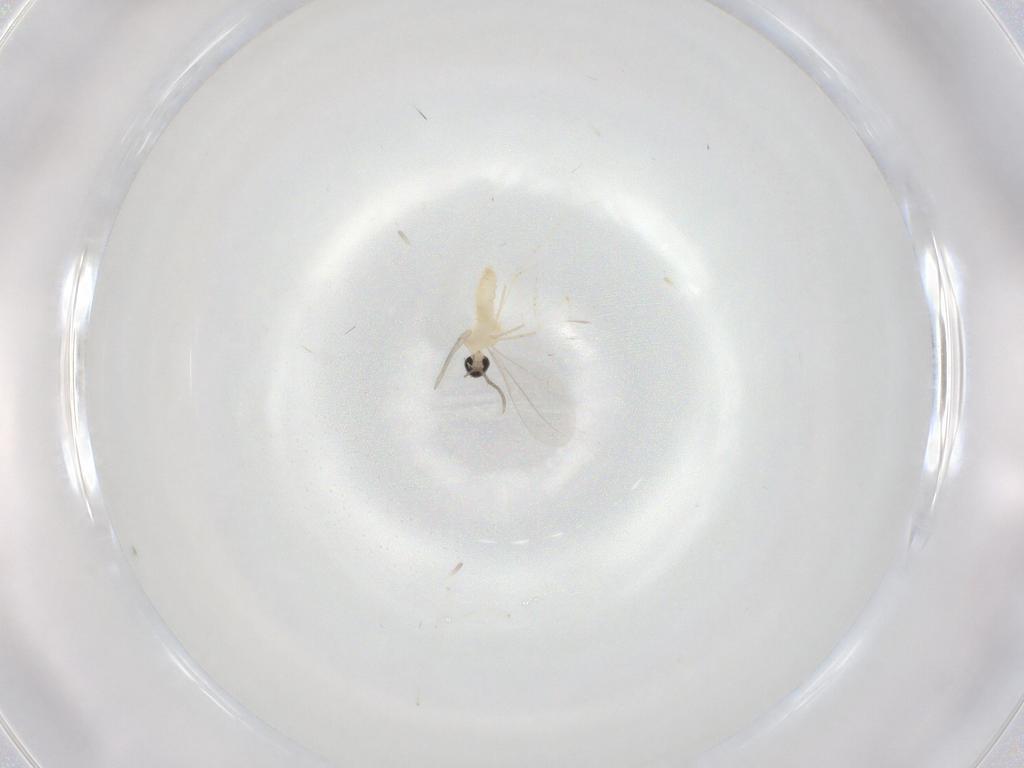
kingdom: Animalia
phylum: Arthropoda
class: Insecta
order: Diptera
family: Cecidomyiidae
